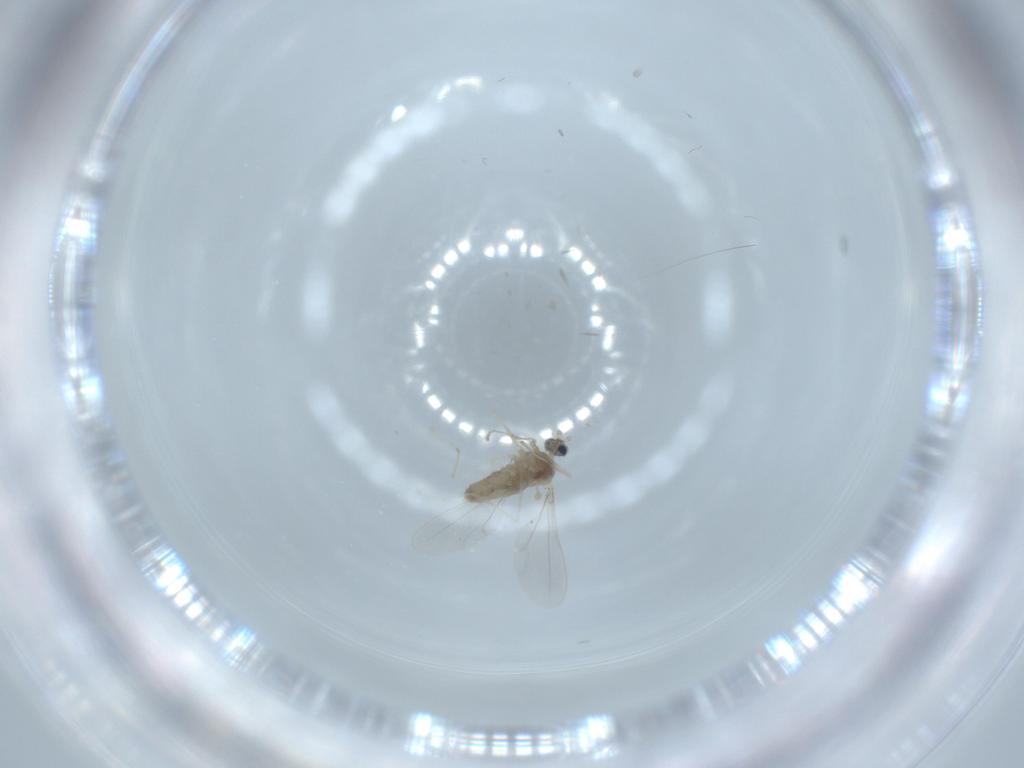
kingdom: Animalia
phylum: Arthropoda
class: Insecta
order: Diptera
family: Cecidomyiidae
